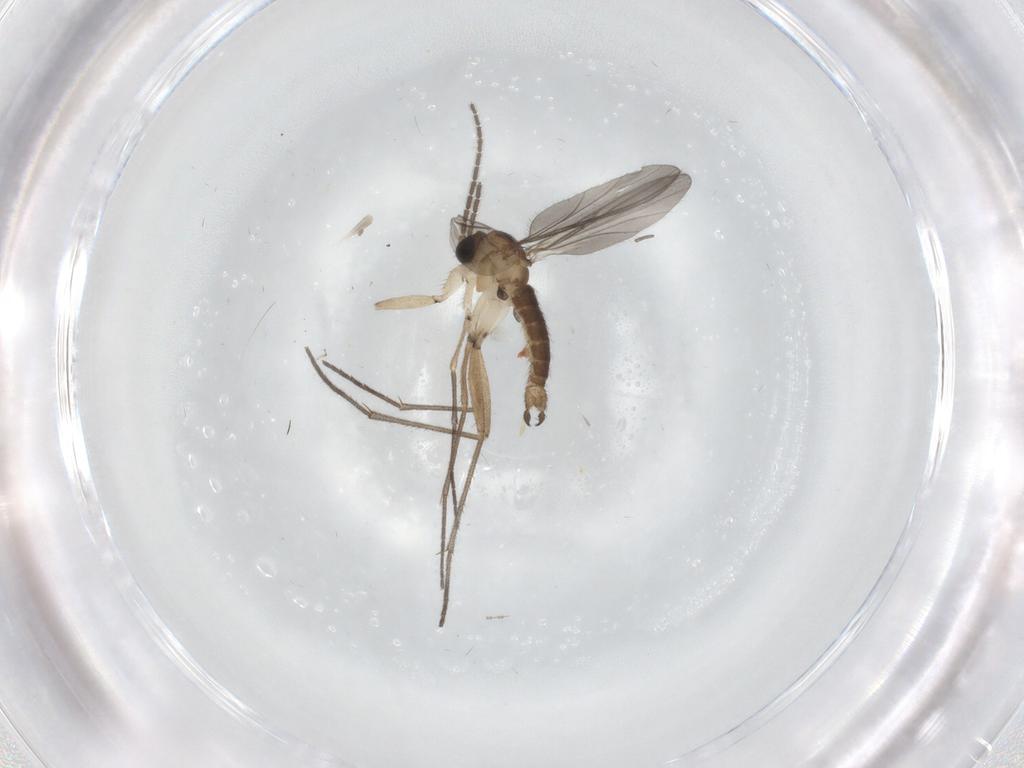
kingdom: Animalia
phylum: Arthropoda
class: Insecta
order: Diptera
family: Sciaridae
